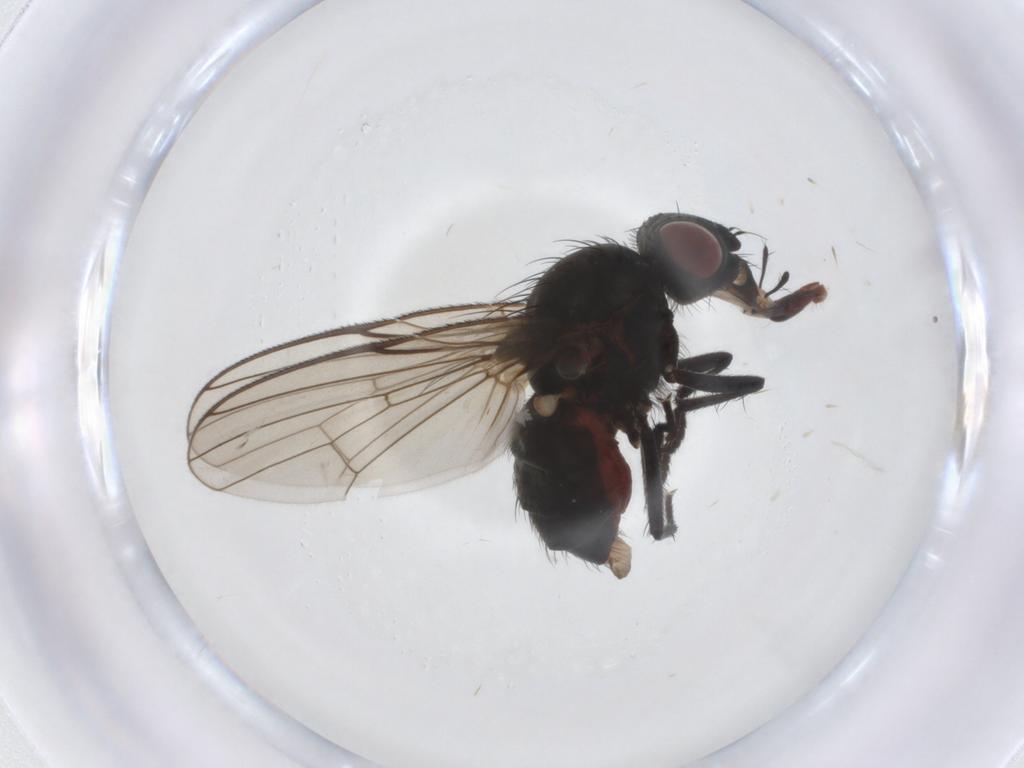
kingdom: Animalia
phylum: Arthropoda
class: Insecta
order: Diptera
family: Anthomyiidae
